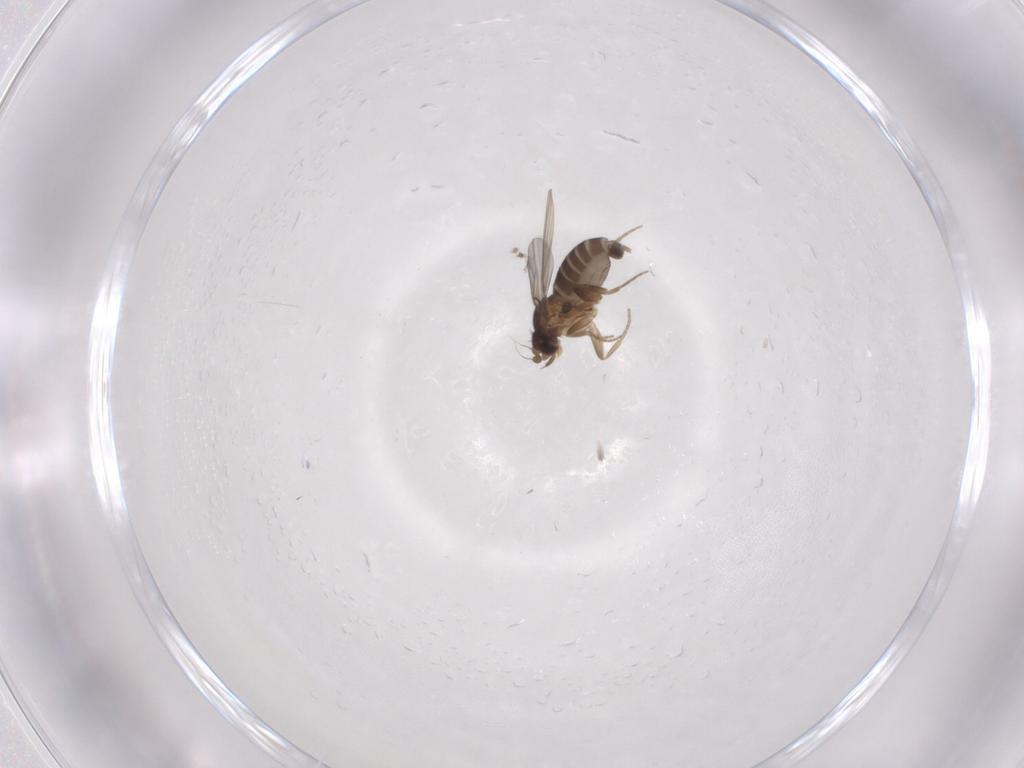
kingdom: Animalia
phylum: Arthropoda
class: Insecta
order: Diptera
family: Phoridae
